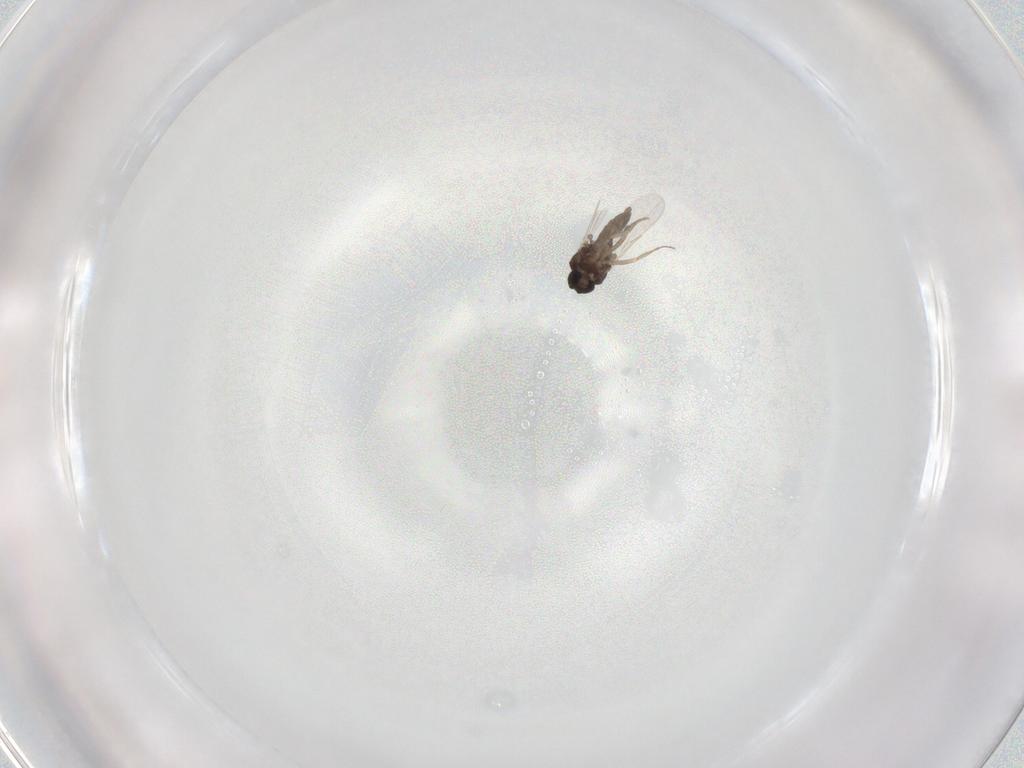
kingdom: Animalia
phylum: Arthropoda
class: Insecta
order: Diptera
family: Ceratopogonidae
